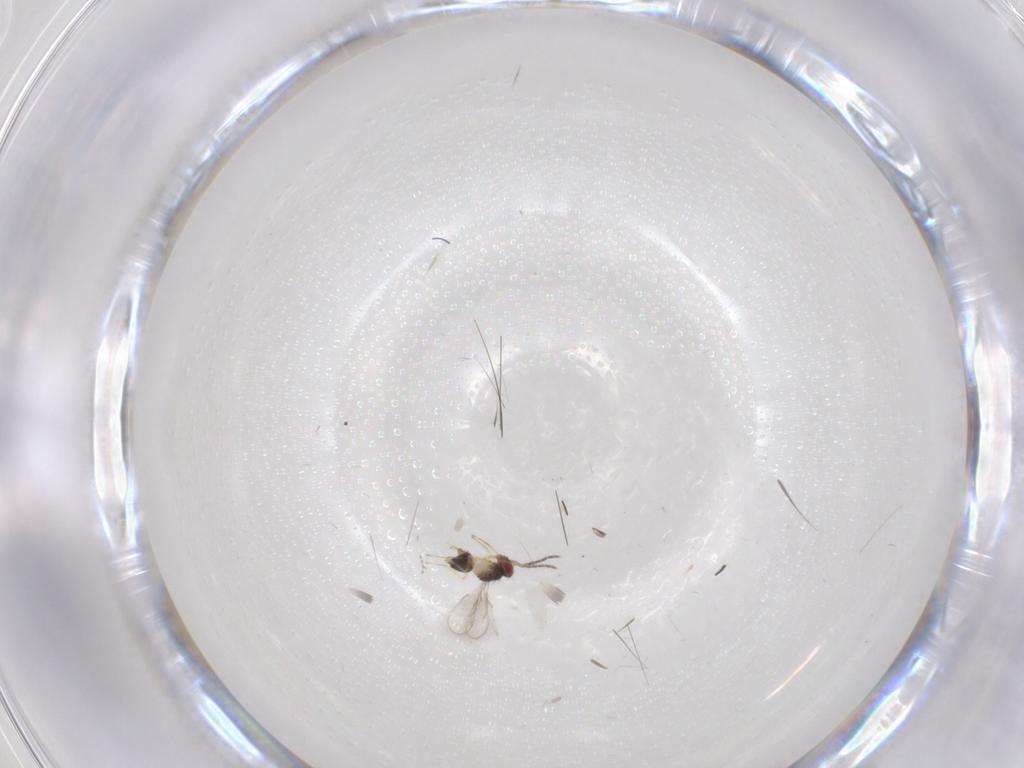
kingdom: Animalia
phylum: Arthropoda
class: Insecta
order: Hymenoptera
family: Eulophidae
